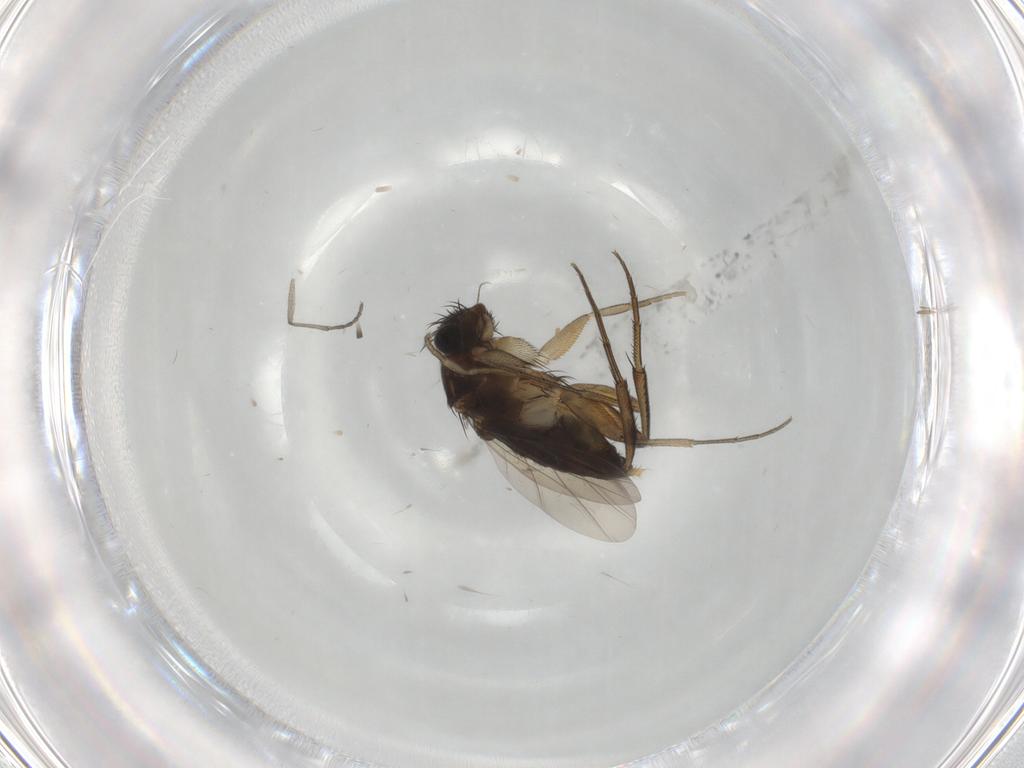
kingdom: Animalia
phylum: Arthropoda
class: Insecta
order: Diptera
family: Phoridae
